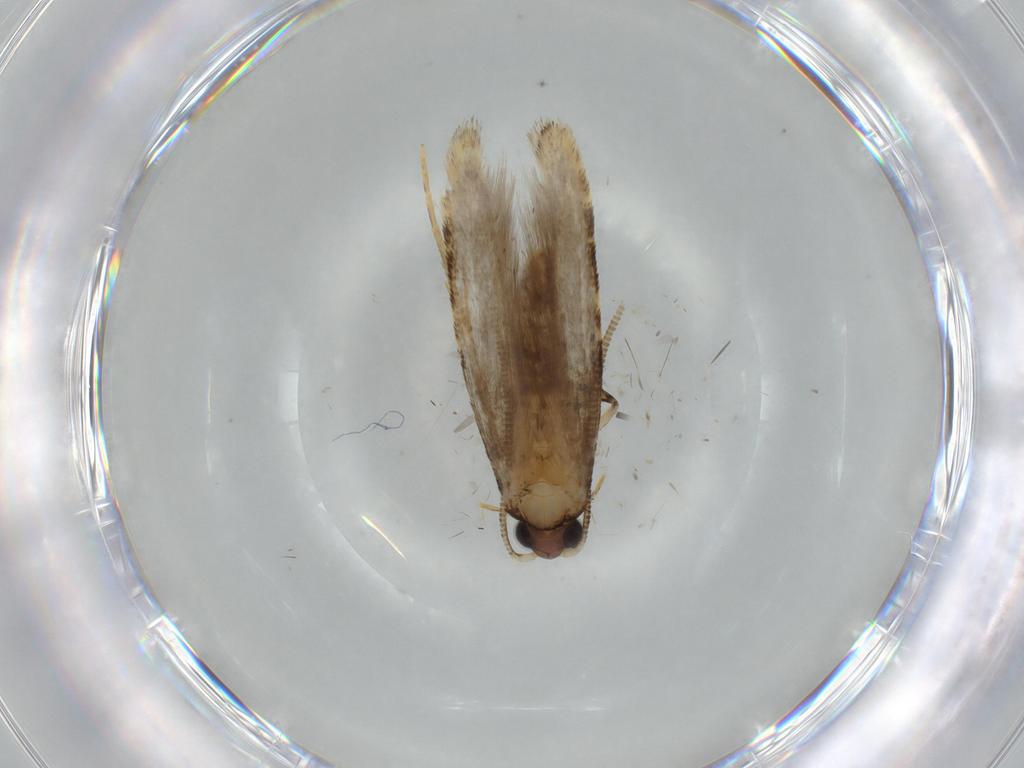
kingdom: Animalia
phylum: Arthropoda
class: Insecta
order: Lepidoptera
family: Tineidae
